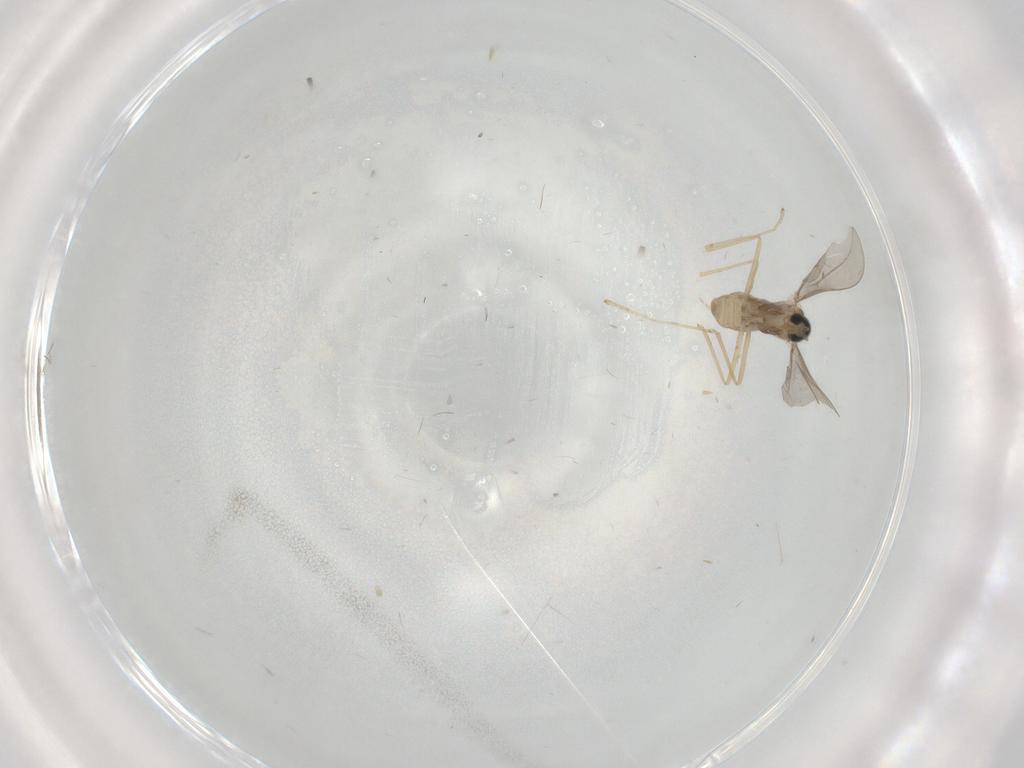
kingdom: Animalia
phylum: Arthropoda
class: Insecta
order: Diptera
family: Cecidomyiidae
